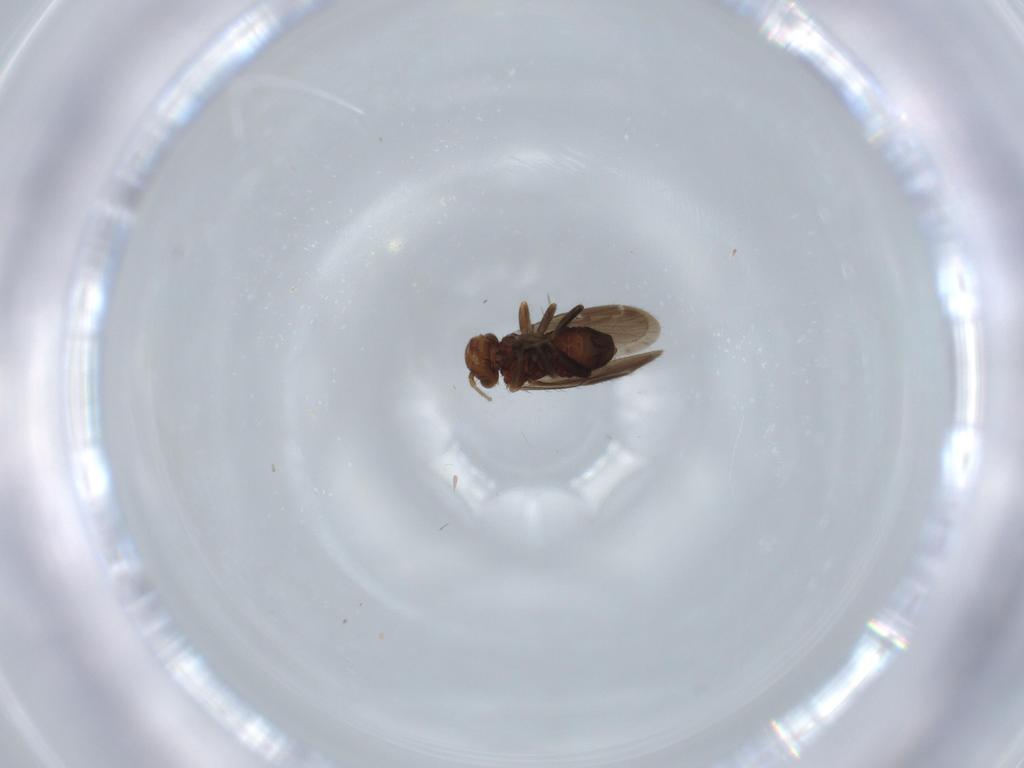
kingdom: Animalia
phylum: Arthropoda
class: Insecta
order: Psocodea
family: Ectopsocidae
